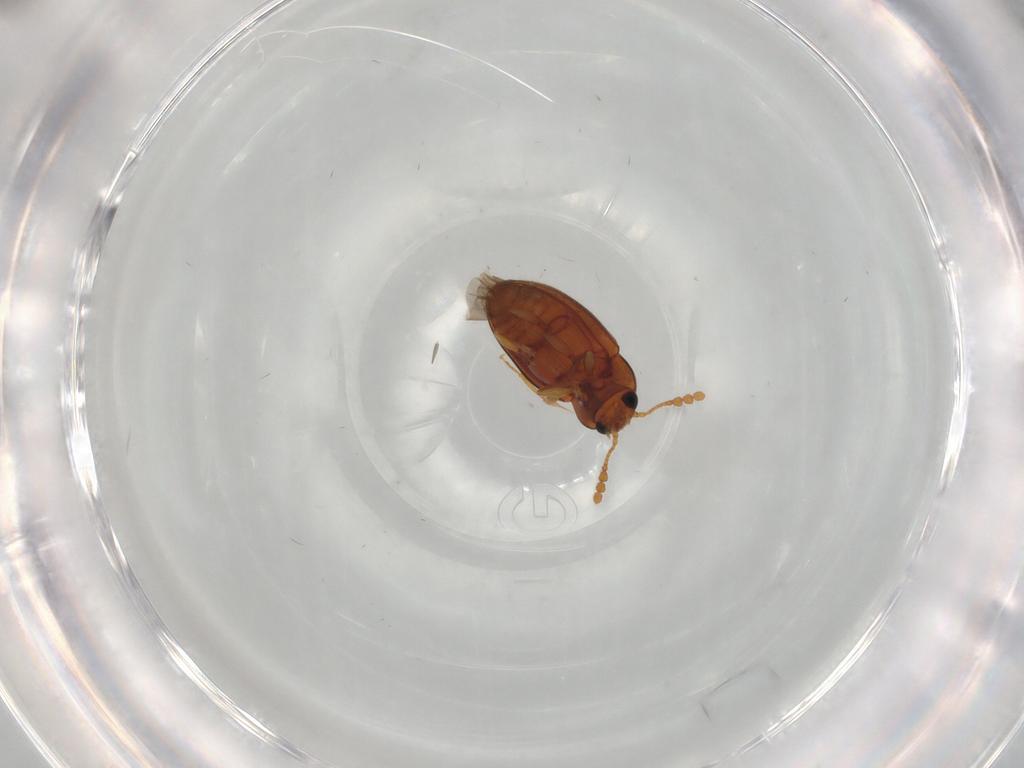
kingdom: Animalia
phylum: Arthropoda
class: Insecta
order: Coleoptera
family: Erotylidae
